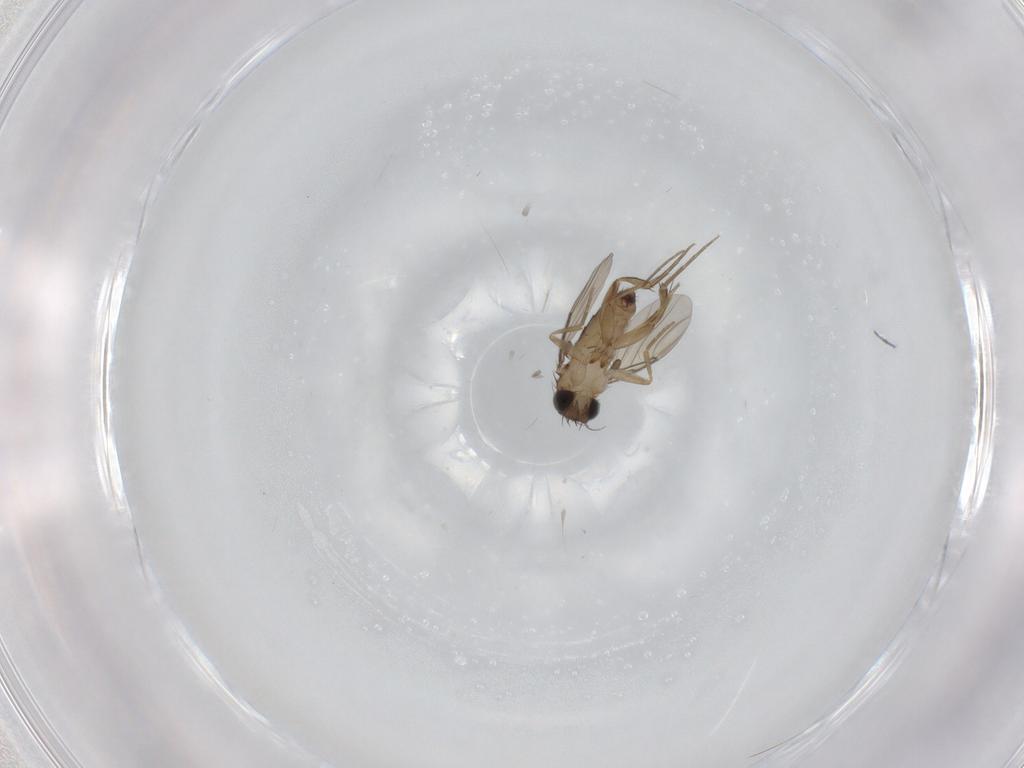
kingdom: Animalia
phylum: Arthropoda
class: Insecta
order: Diptera
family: Phoridae
